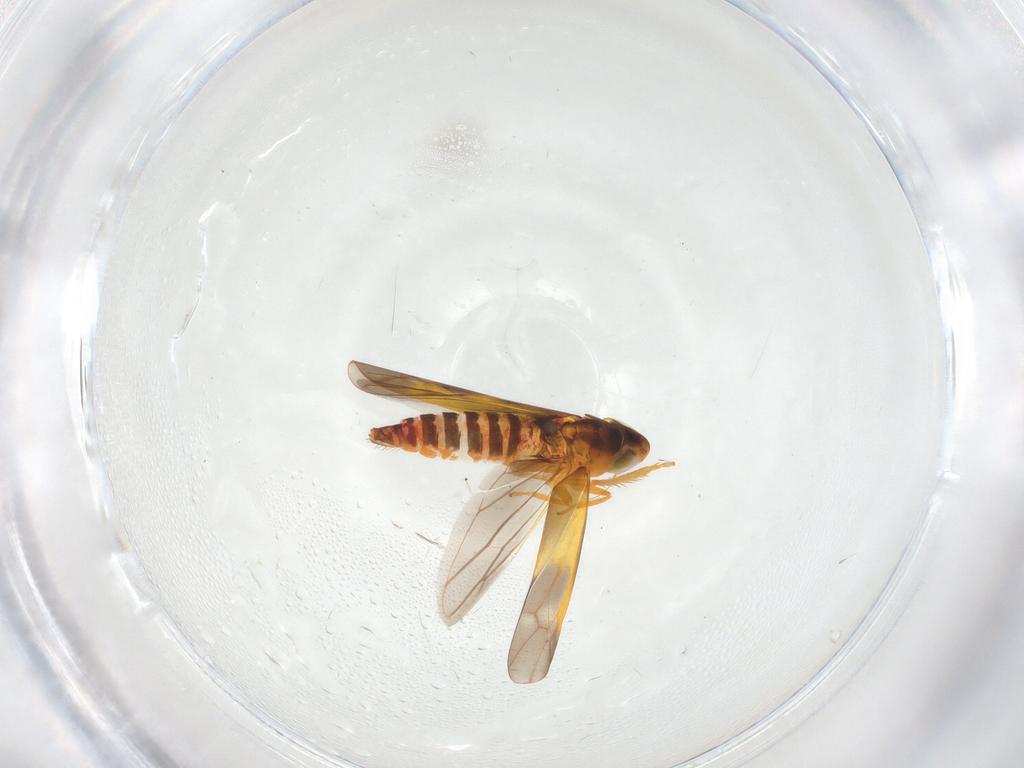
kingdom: Animalia
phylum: Arthropoda
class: Insecta
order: Hemiptera
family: Cicadellidae
